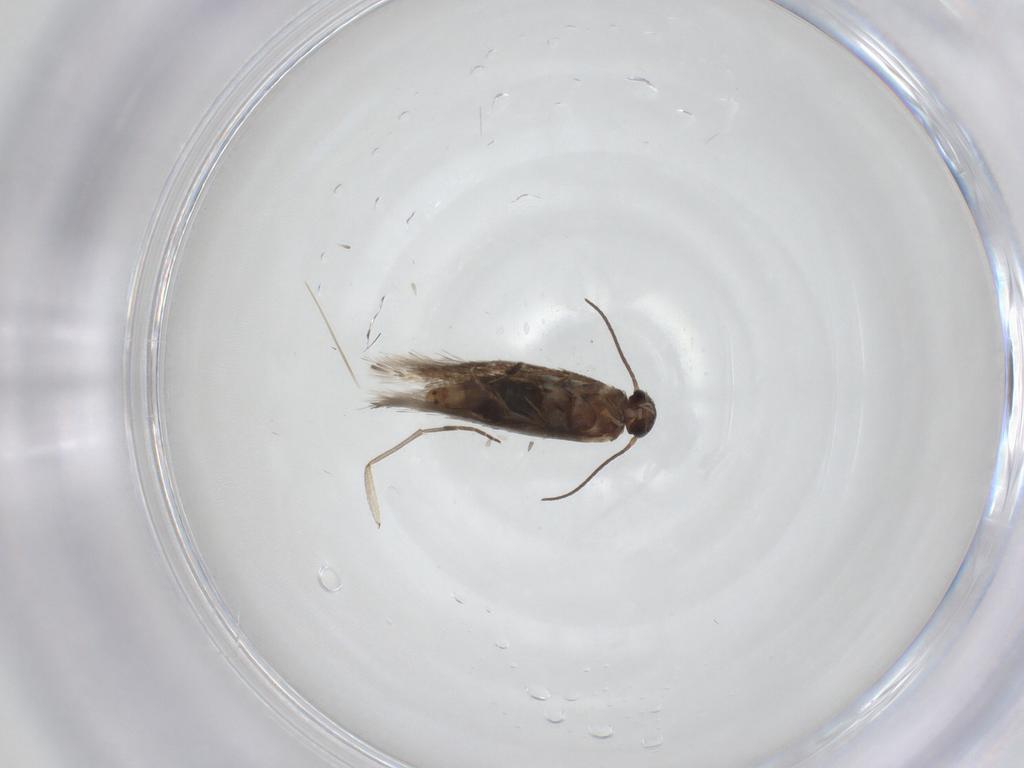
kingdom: Animalia
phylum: Arthropoda
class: Insecta
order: Lepidoptera
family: Heliozelidae
